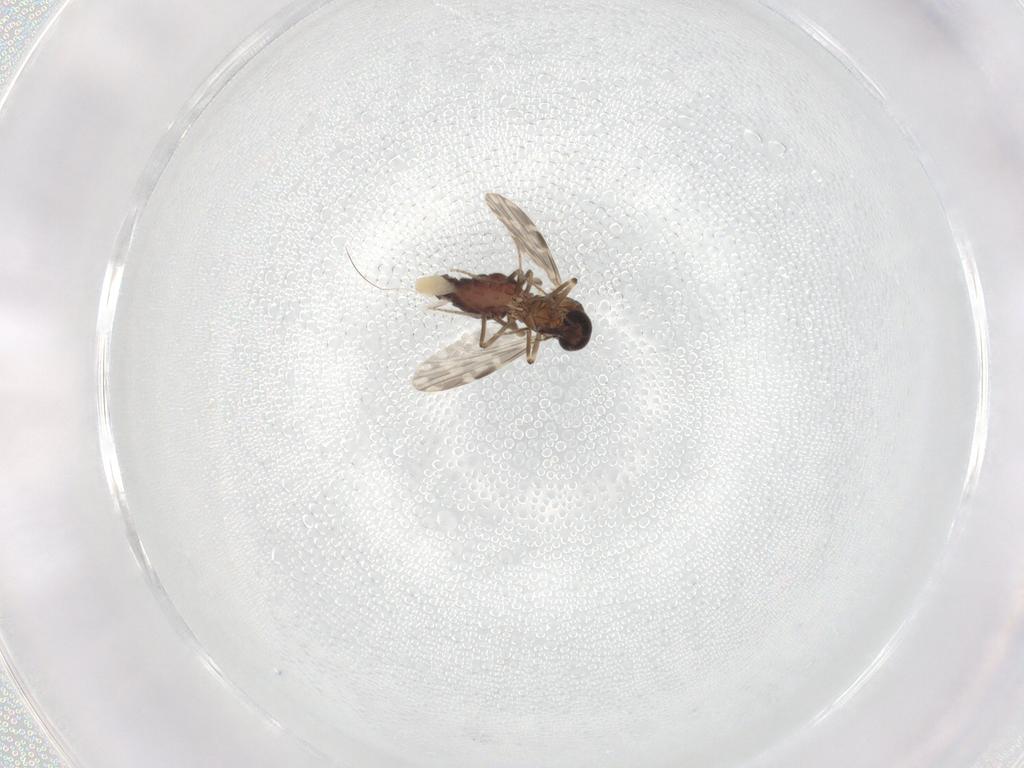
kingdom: Animalia
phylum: Arthropoda
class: Insecta
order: Diptera
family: Ceratopogonidae
